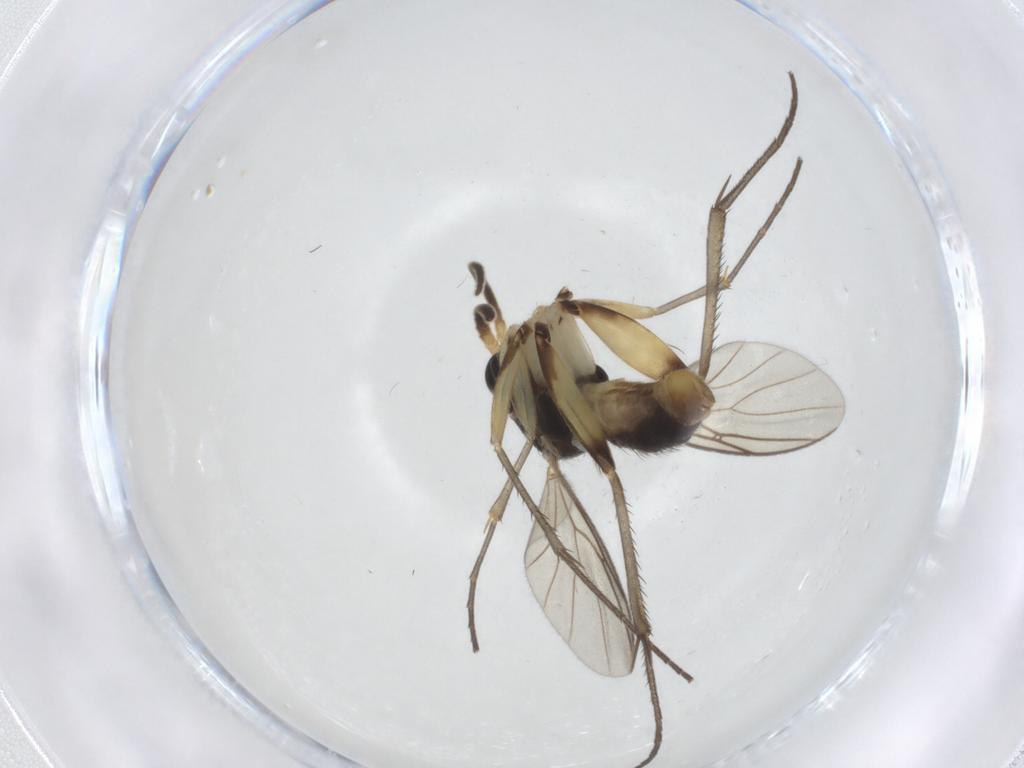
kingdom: Animalia
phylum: Arthropoda
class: Insecta
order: Diptera
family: Mycetophilidae
